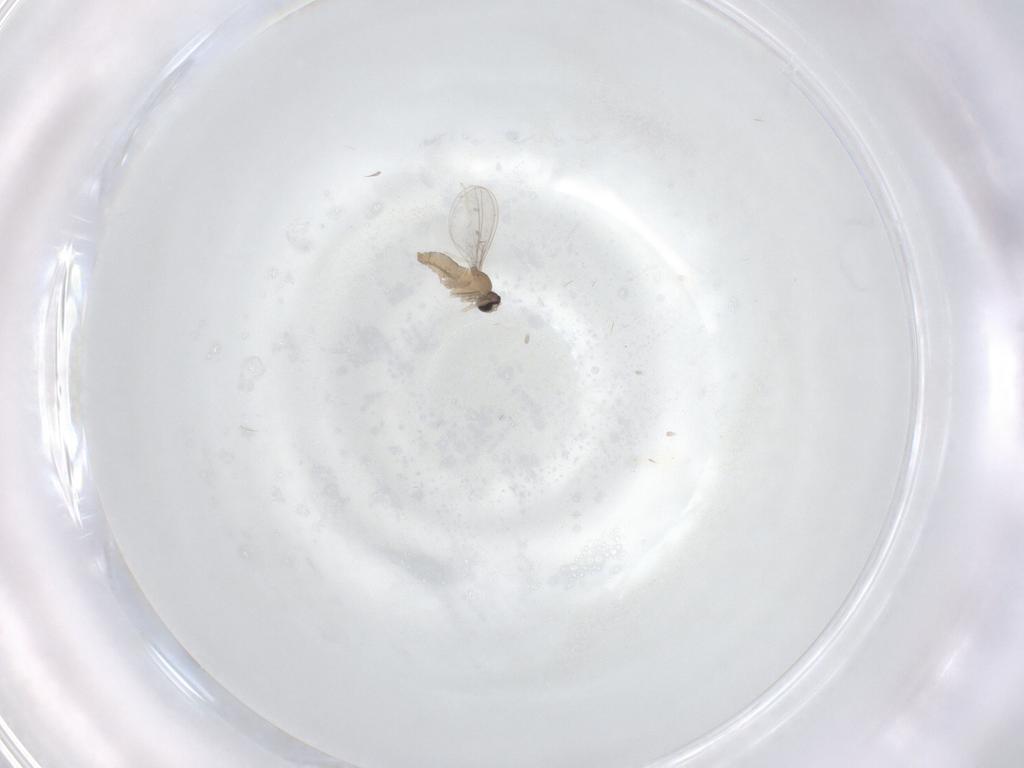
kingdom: Animalia
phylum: Arthropoda
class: Insecta
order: Diptera
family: Cecidomyiidae
